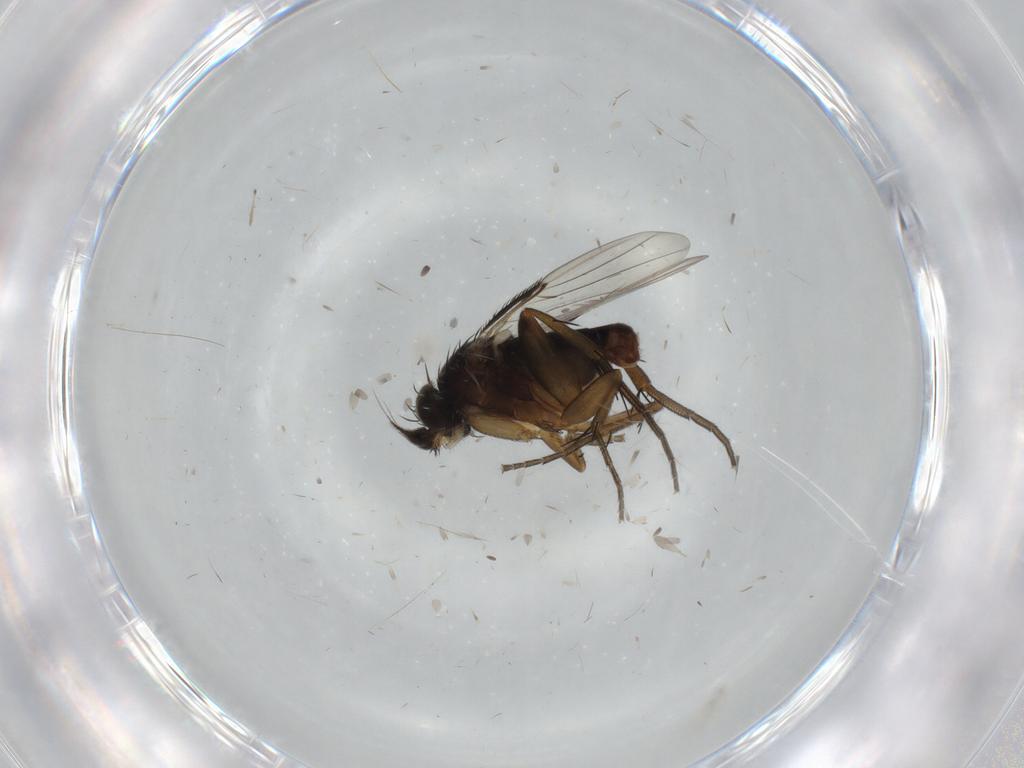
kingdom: Animalia
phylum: Arthropoda
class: Insecta
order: Diptera
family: Phoridae
